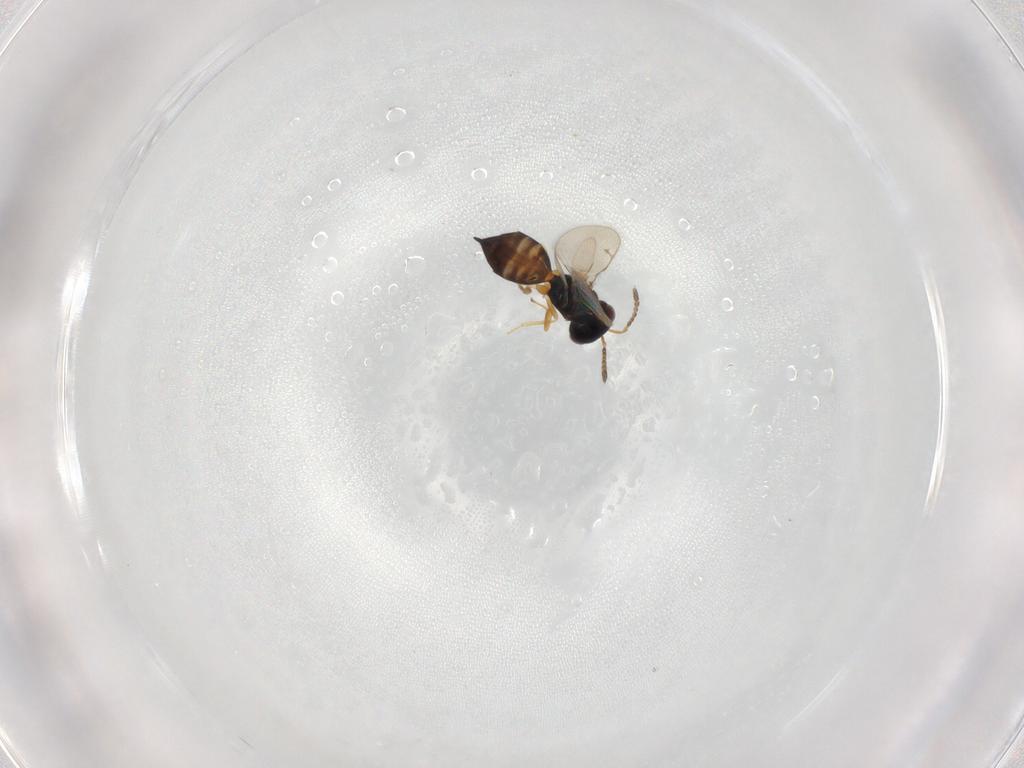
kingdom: Animalia
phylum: Arthropoda
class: Insecta
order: Hymenoptera
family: Pteromalidae
